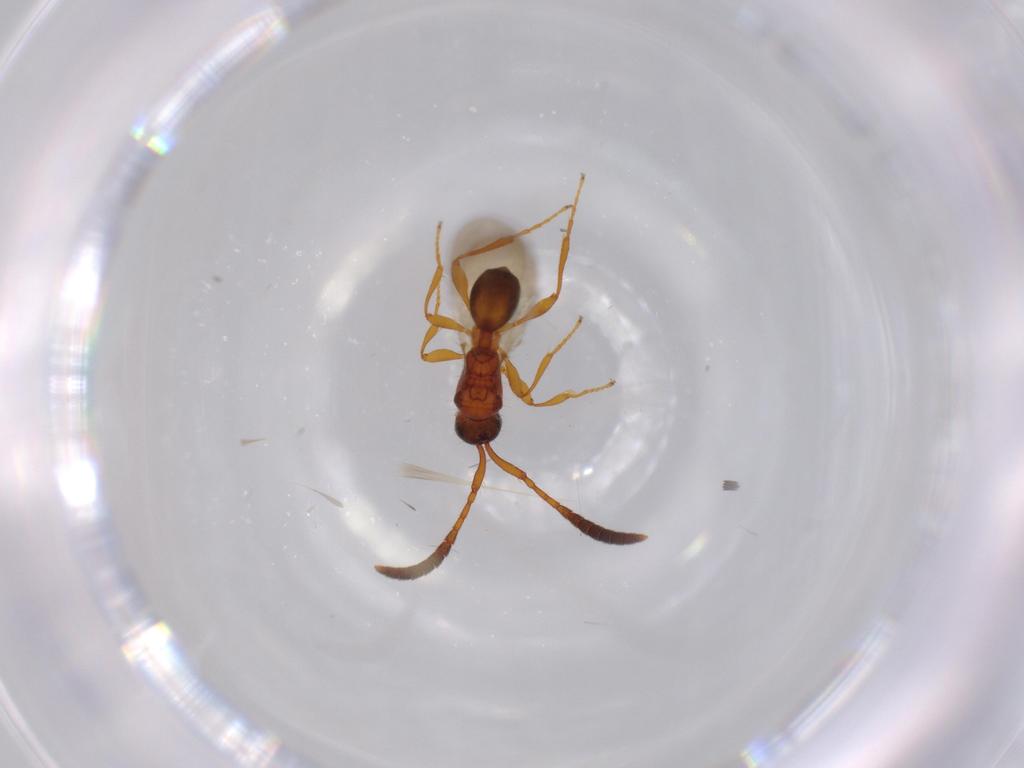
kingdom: Animalia
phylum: Arthropoda
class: Insecta
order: Hymenoptera
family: Diapriidae
